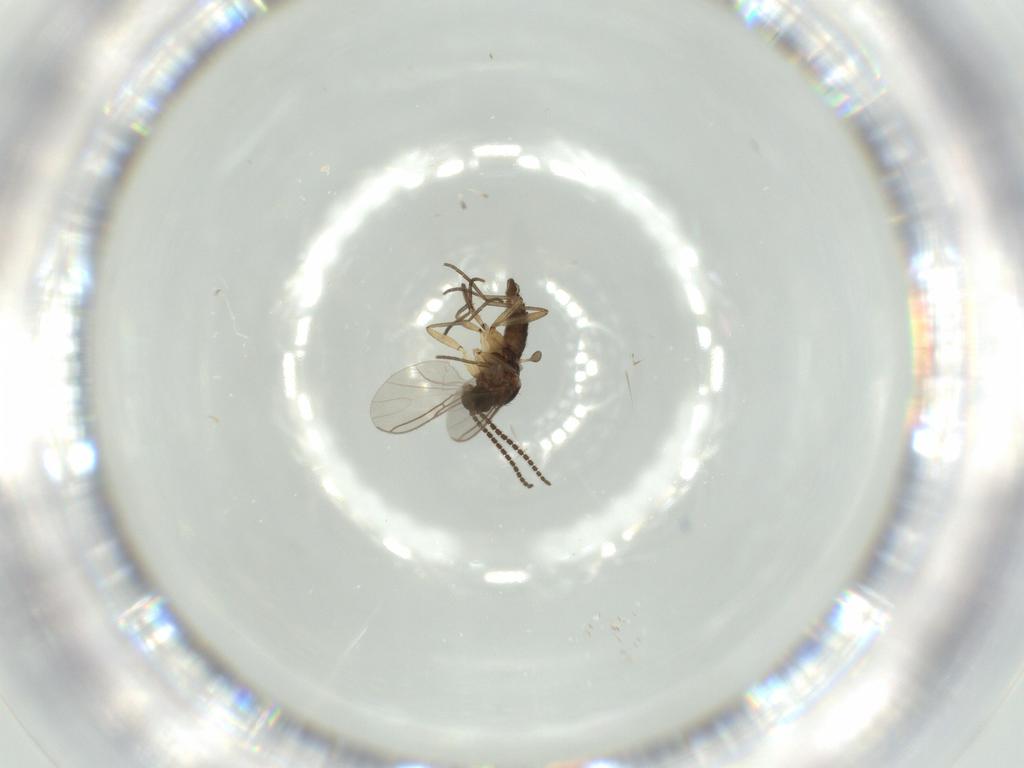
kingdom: Animalia
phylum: Arthropoda
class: Insecta
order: Diptera
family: Sciaridae
